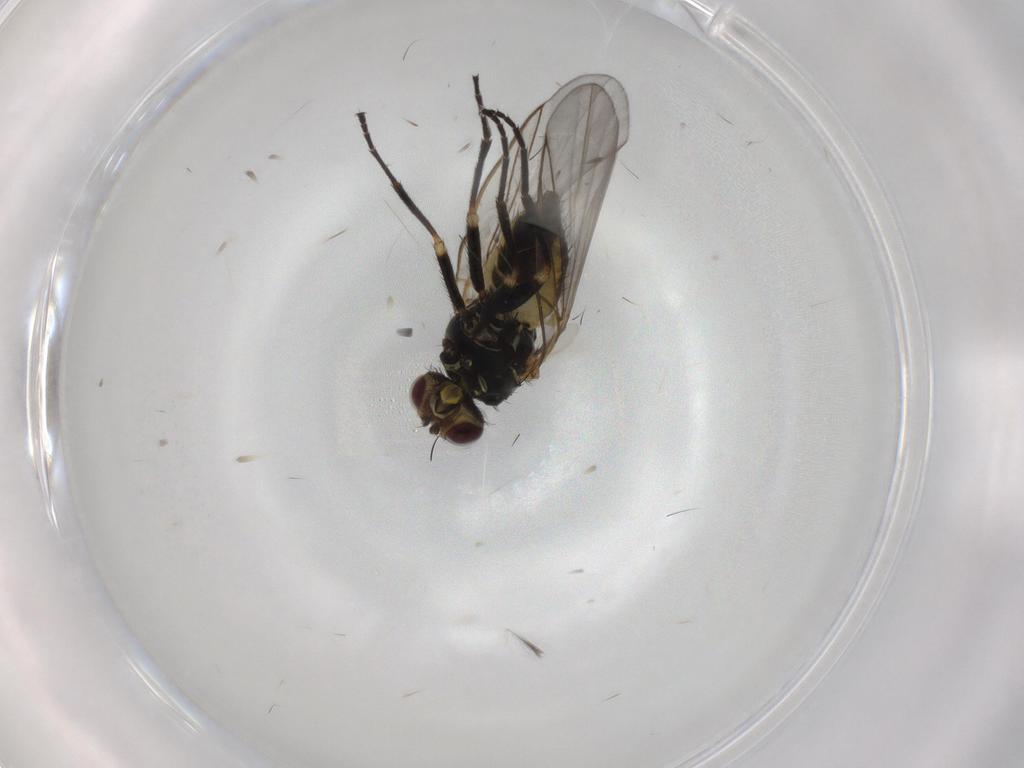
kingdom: Animalia
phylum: Arthropoda
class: Insecta
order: Diptera
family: Agromyzidae
